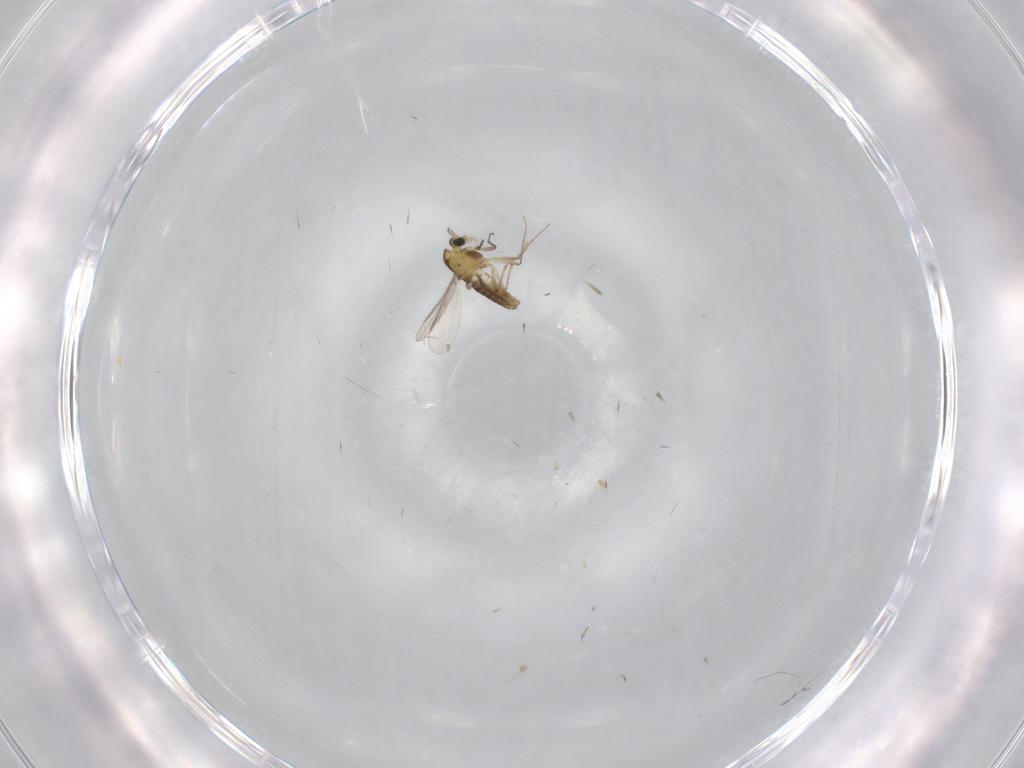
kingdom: Animalia
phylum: Arthropoda
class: Insecta
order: Diptera
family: Chironomidae
